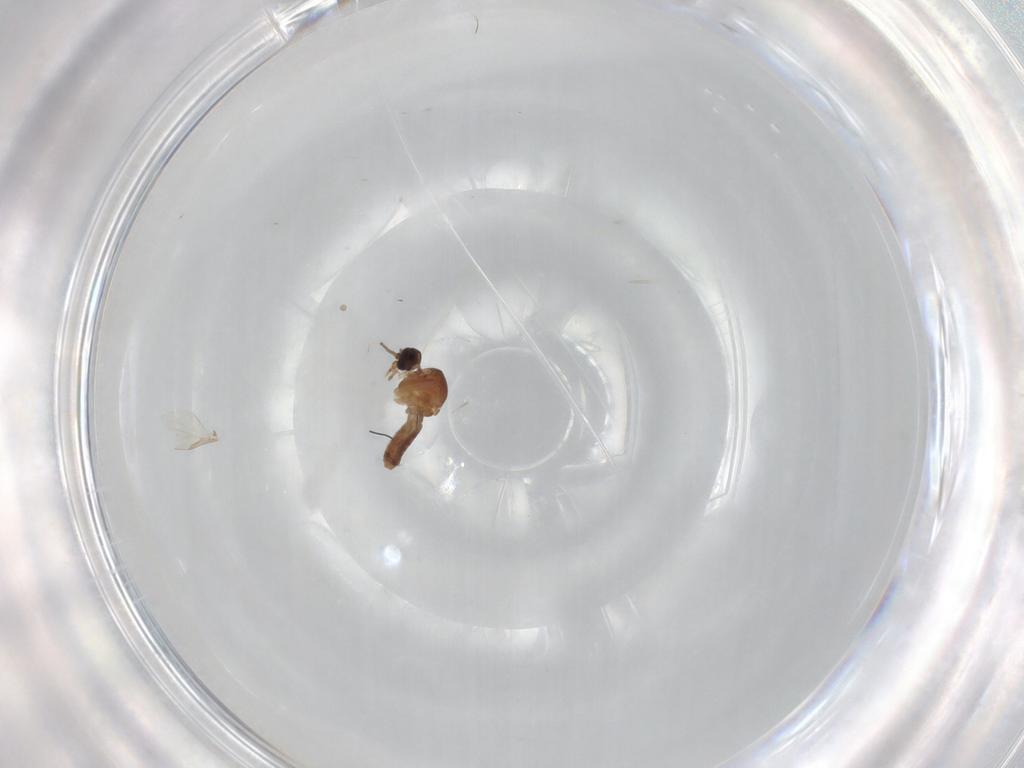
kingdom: Animalia
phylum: Arthropoda
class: Insecta
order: Diptera
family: Ceratopogonidae
